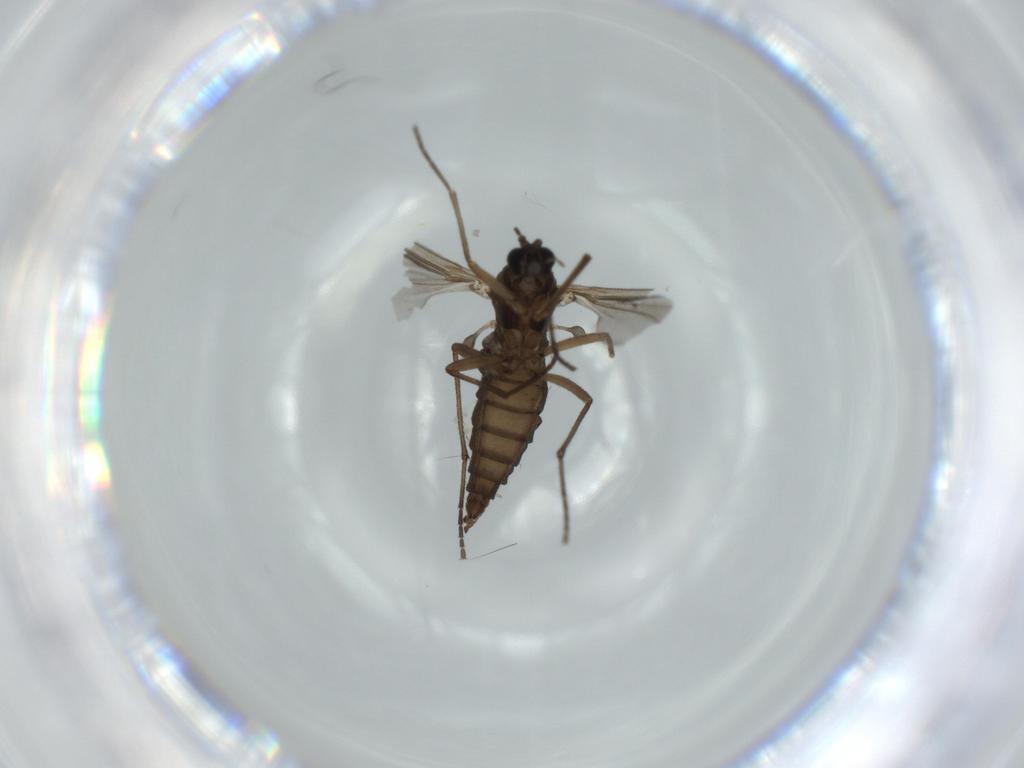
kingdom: Animalia
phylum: Arthropoda
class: Insecta
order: Diptera
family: Sciaridae
